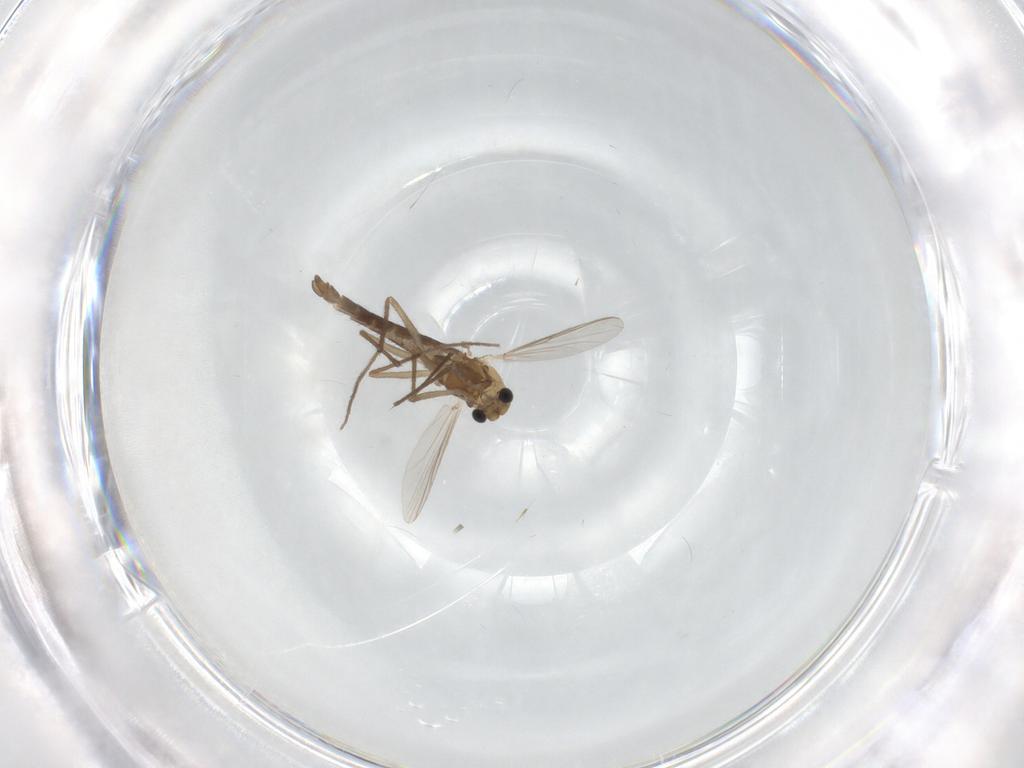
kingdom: Animalia
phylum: Arthropoda
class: Insecta
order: Diptera
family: Chironomidae
